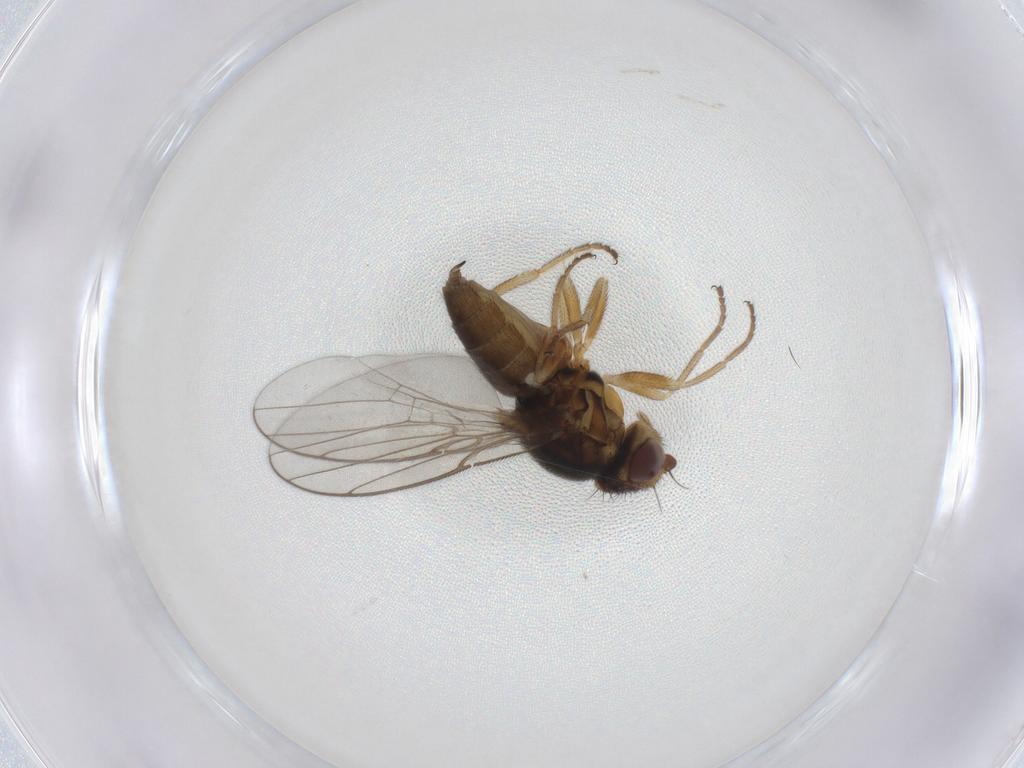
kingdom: Animalia
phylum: Arthropoda
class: Insecta
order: Diptera
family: Chloropidae
